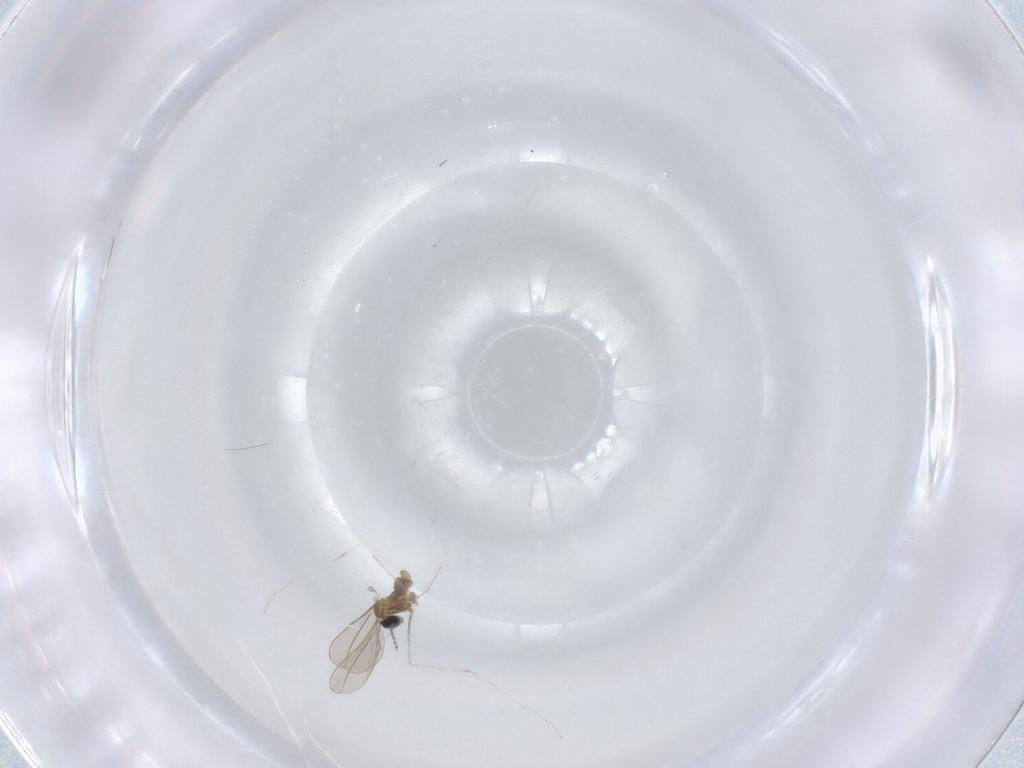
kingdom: Animalia
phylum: Arthropoda
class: Insecta
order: Diptera
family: Cecidomyiidae
